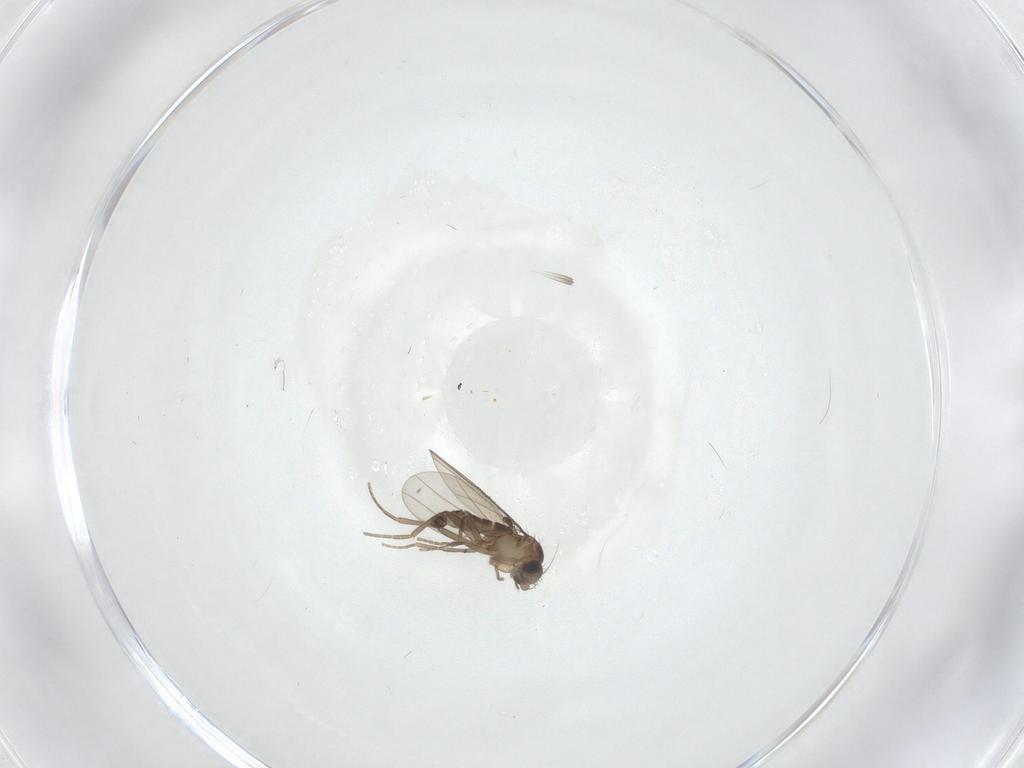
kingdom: Animalia
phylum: Arthropoda
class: Insecta
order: Diptera
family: Phoridae
